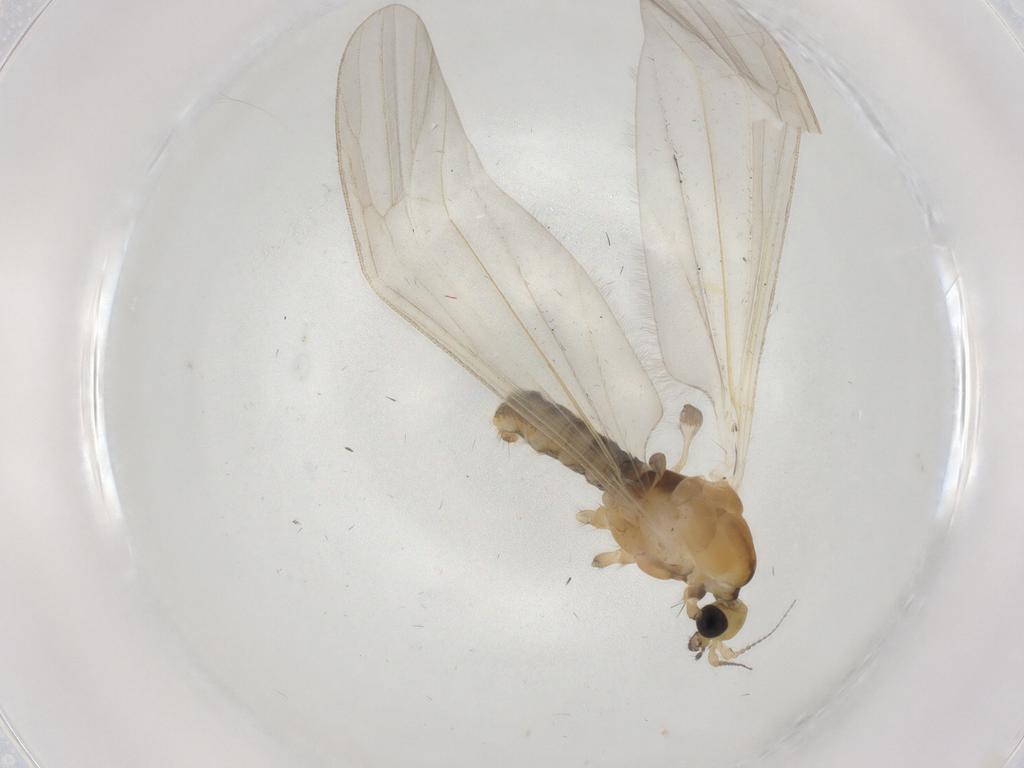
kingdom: Animalia
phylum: Arthropoda
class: Insecta
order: Diptera
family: Limoniidae
